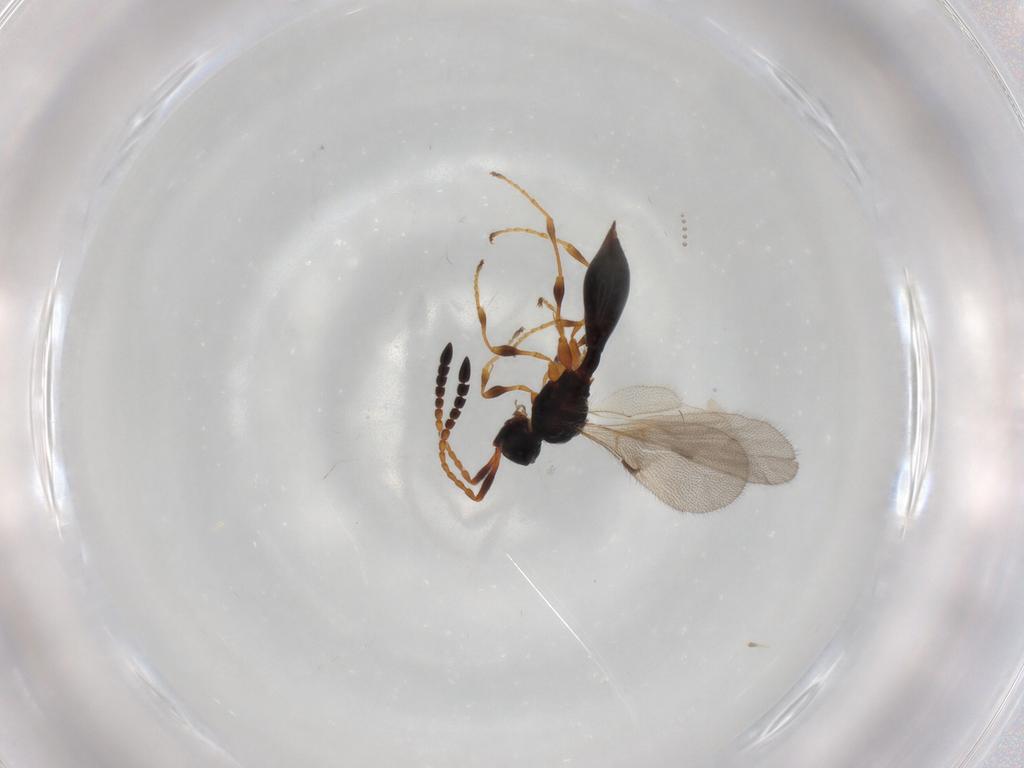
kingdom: Animalia
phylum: Arthropoda
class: Insecta
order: Hymenoptera
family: Diapriidae
